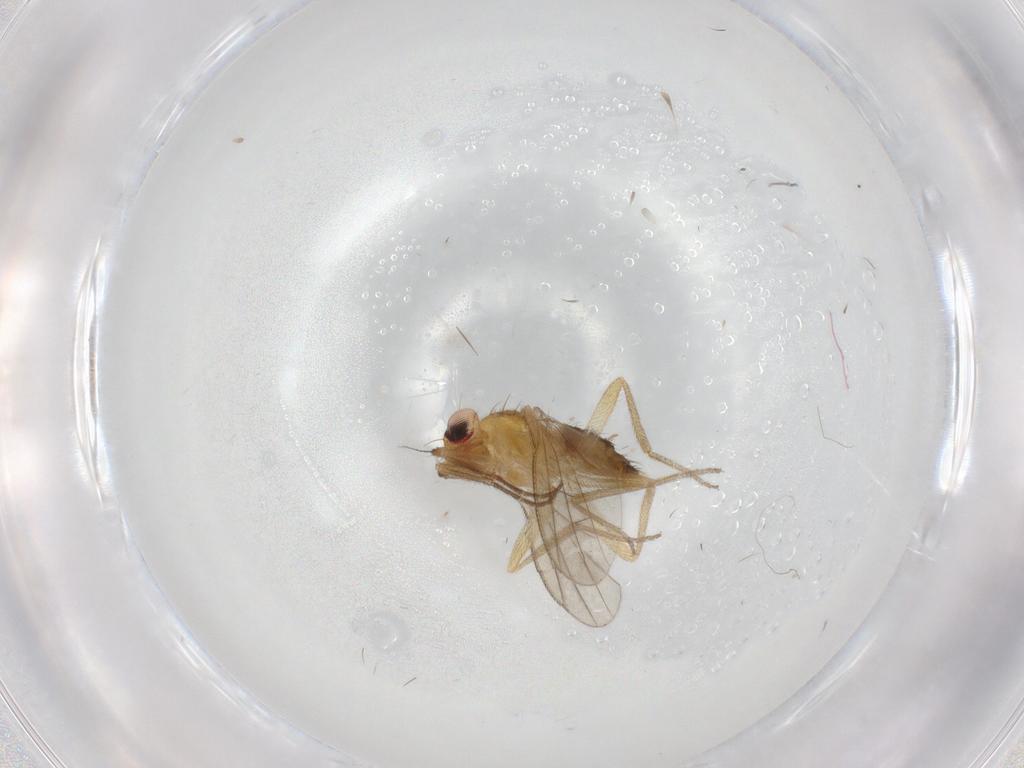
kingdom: Animalia
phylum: Arthropoda
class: Insecta
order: Diptera
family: Clusiidae
